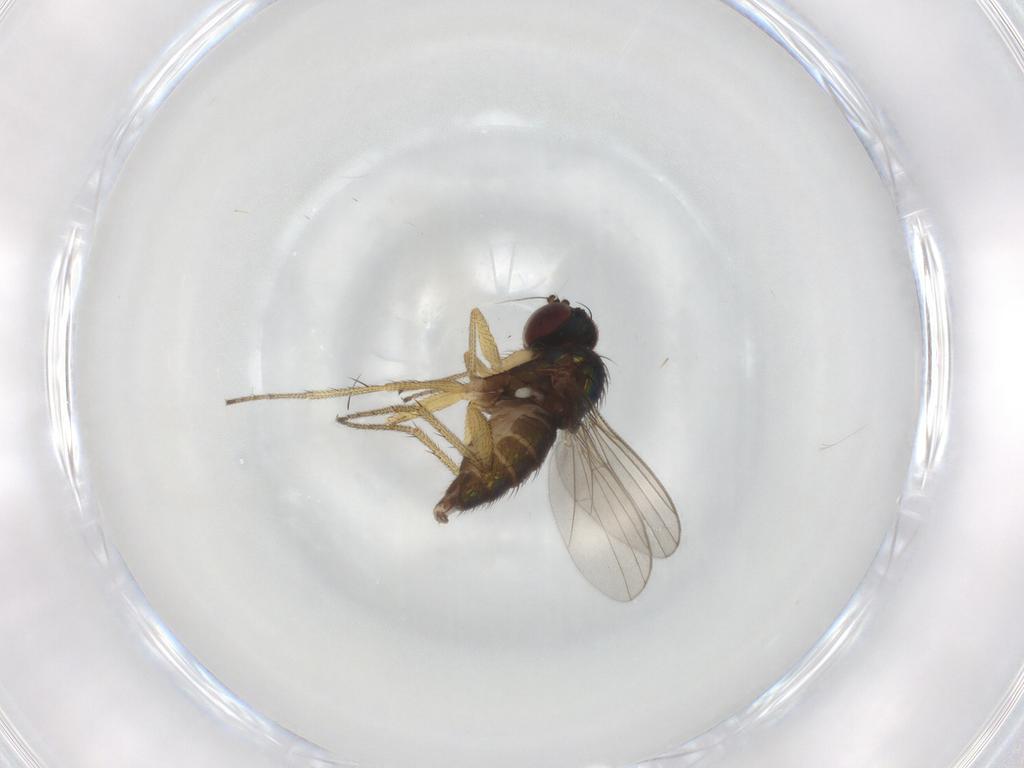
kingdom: Animalia
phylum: Arthropoda
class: Insecta
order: Diptera
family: Dolichopodidae
